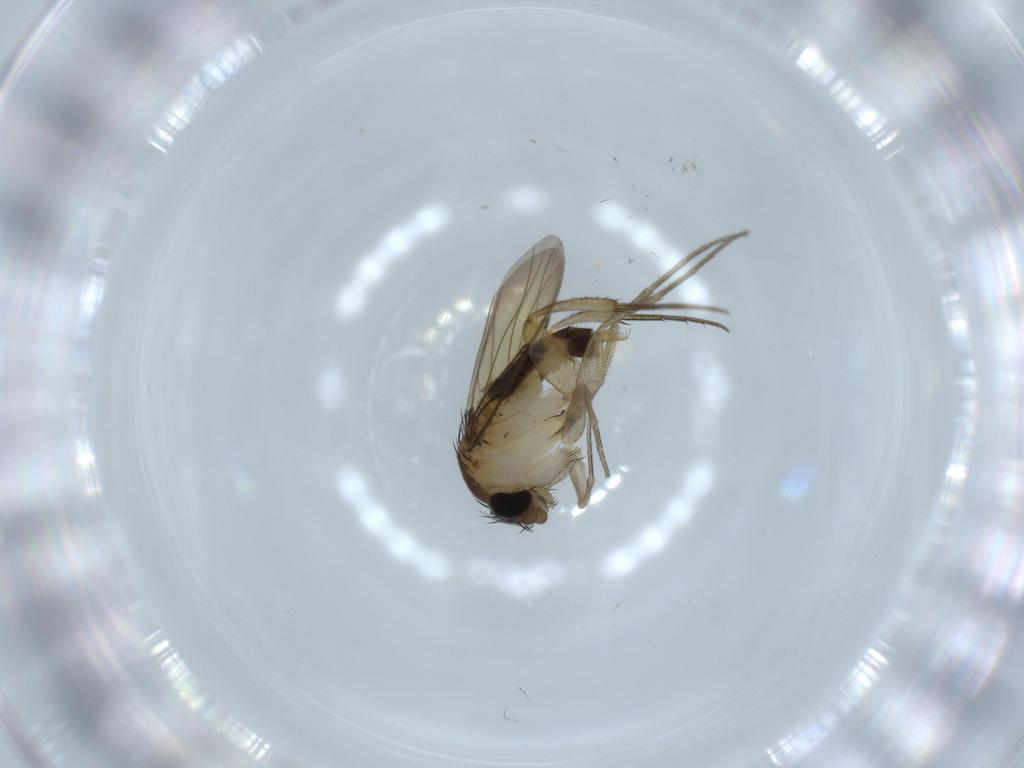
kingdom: Animalia
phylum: Arthropoda
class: Insecta
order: Diptera
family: Phoridae
